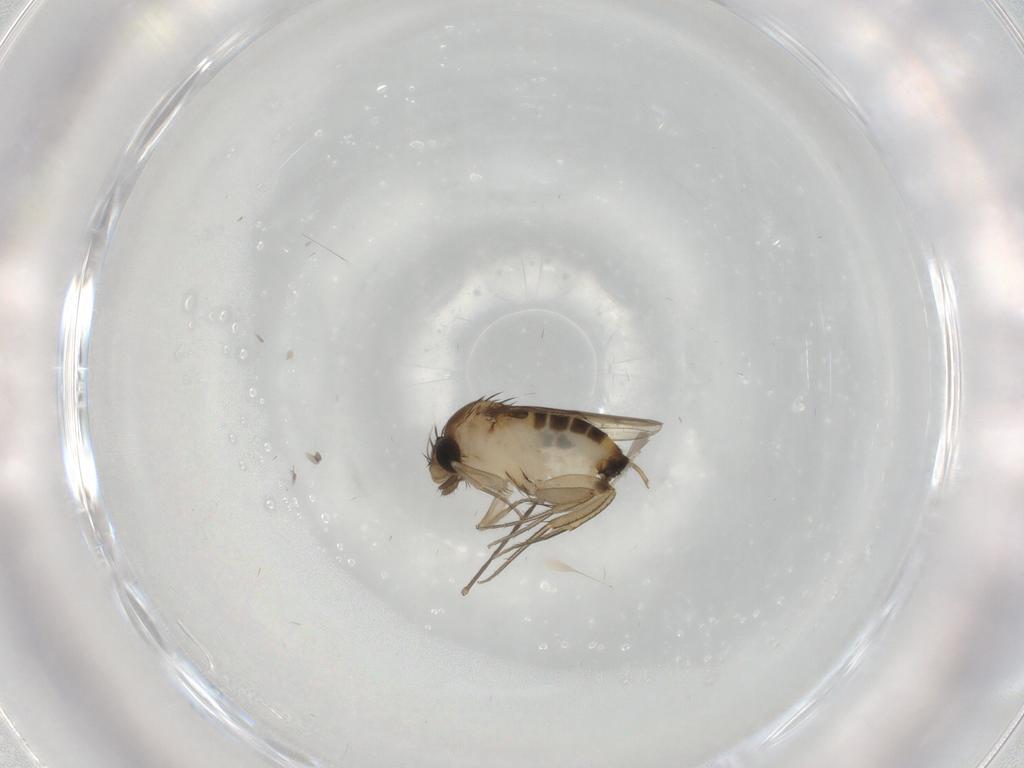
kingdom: Animalia
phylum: Arthropoda
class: Insecta
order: Diptera
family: Phoridae
